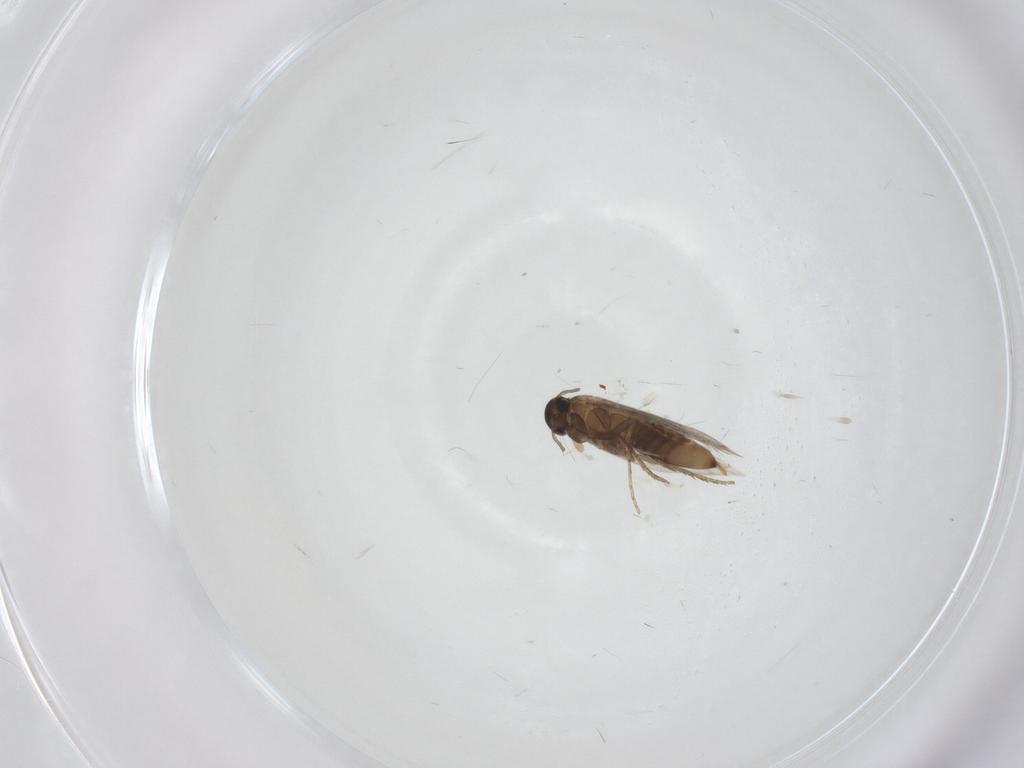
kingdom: Animalia
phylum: Arthropoda
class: Insecta
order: Lepidoptera
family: Heliozelidae
